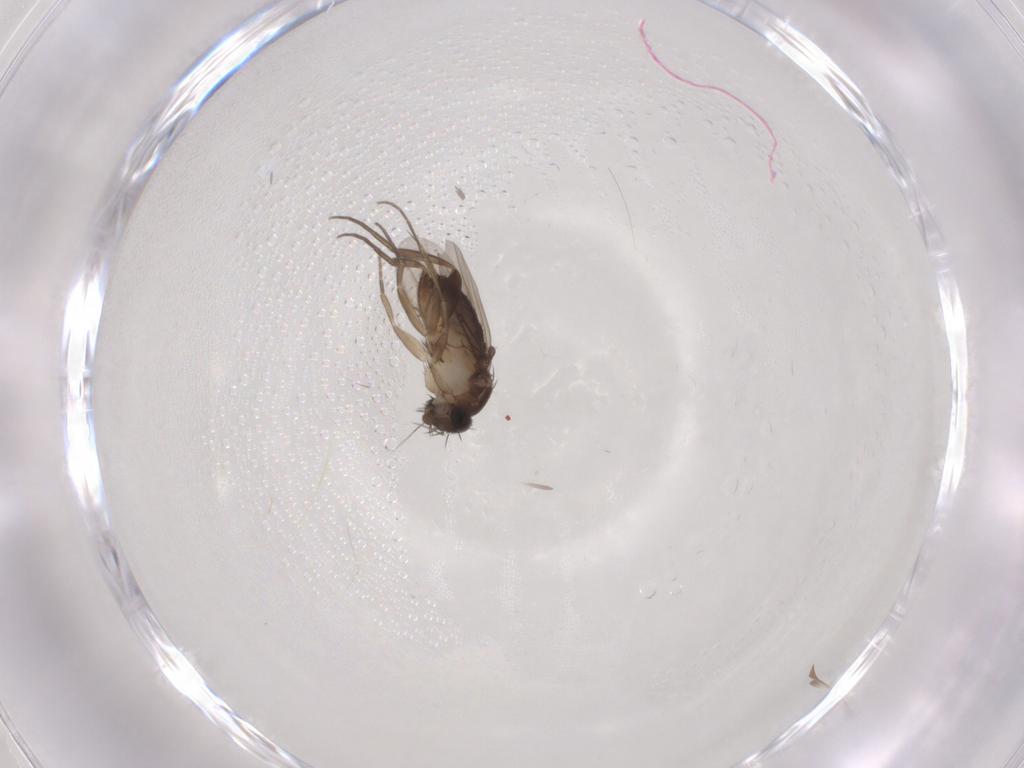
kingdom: Animalia
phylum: Arthropoda
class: Insecta
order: Diptera
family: Phoridae
